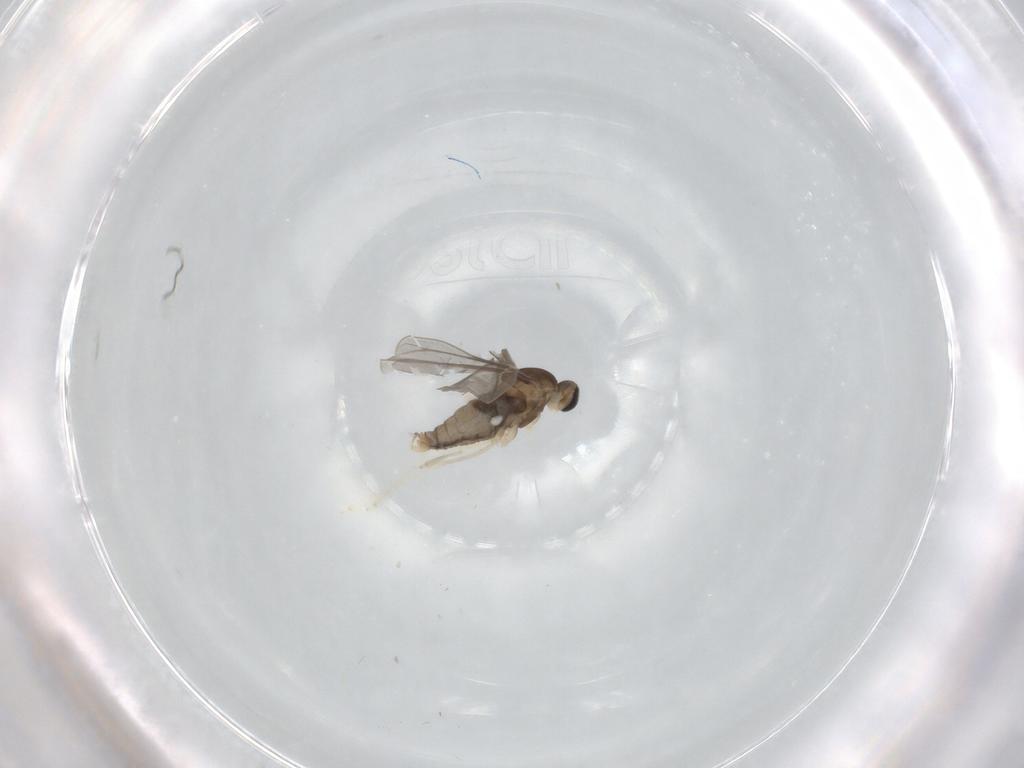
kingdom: Animalia
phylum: Arthropoda
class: Insecta
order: Diptera
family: Cecidomyiidae
